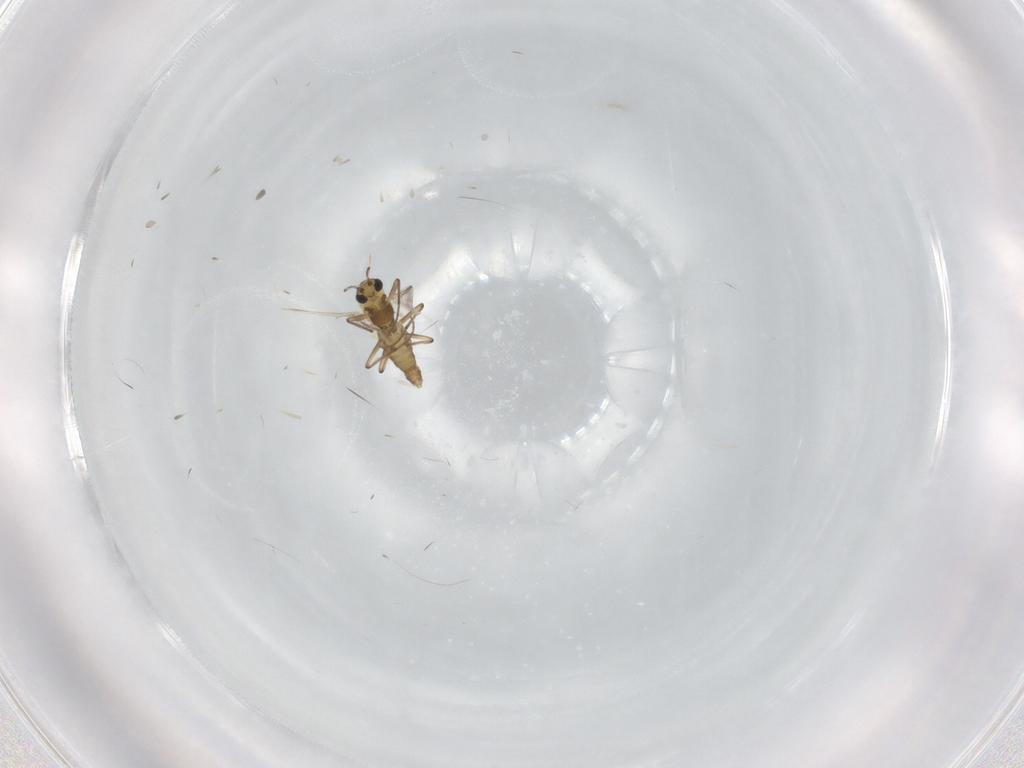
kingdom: Animalia
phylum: Arthropoda
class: Insecta
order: Diptera
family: Chironomidae
